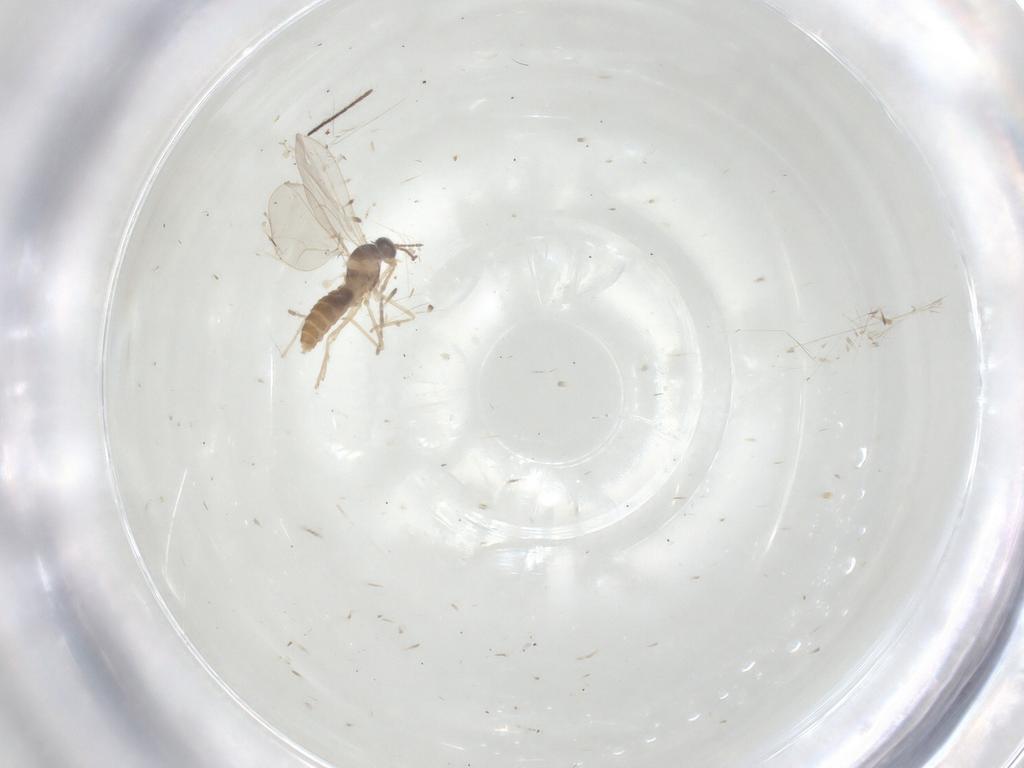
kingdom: Animalia
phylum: Arthropoda
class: Insecta
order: Diptera
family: Cecidomyiidae
